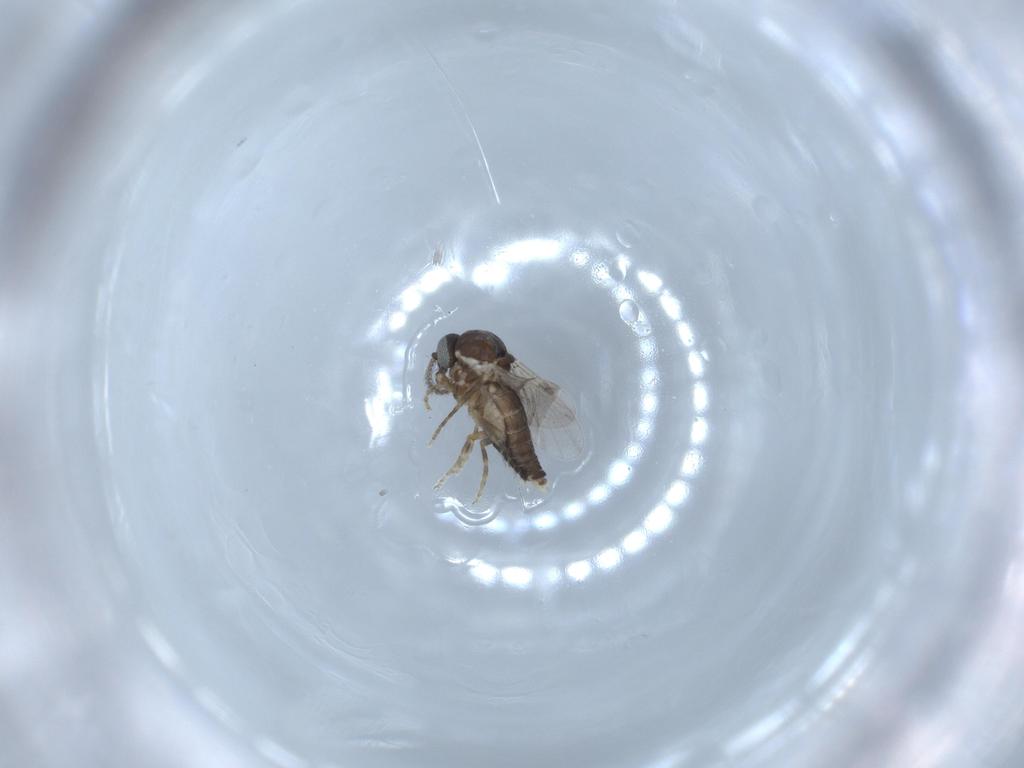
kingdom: Animalia
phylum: Arthropoda
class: Insecta
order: Diptera
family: Ceratopogonidae
